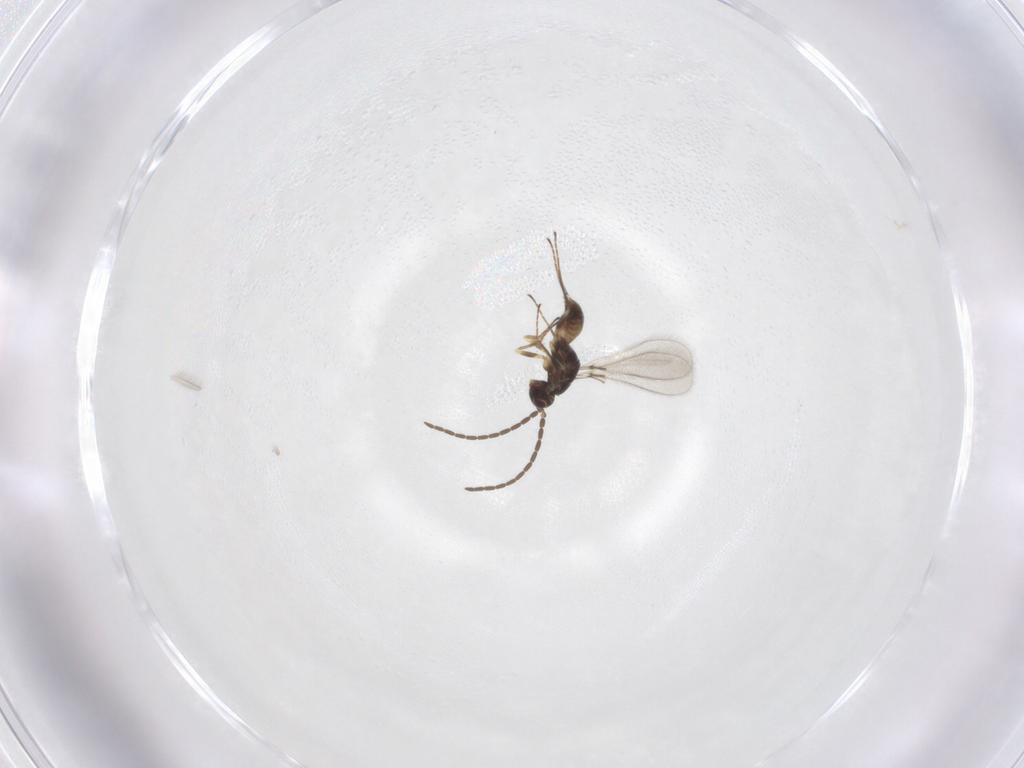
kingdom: Animalia
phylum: Arthropoda
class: Insecta
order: Hymenoptera
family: Mymaridae
